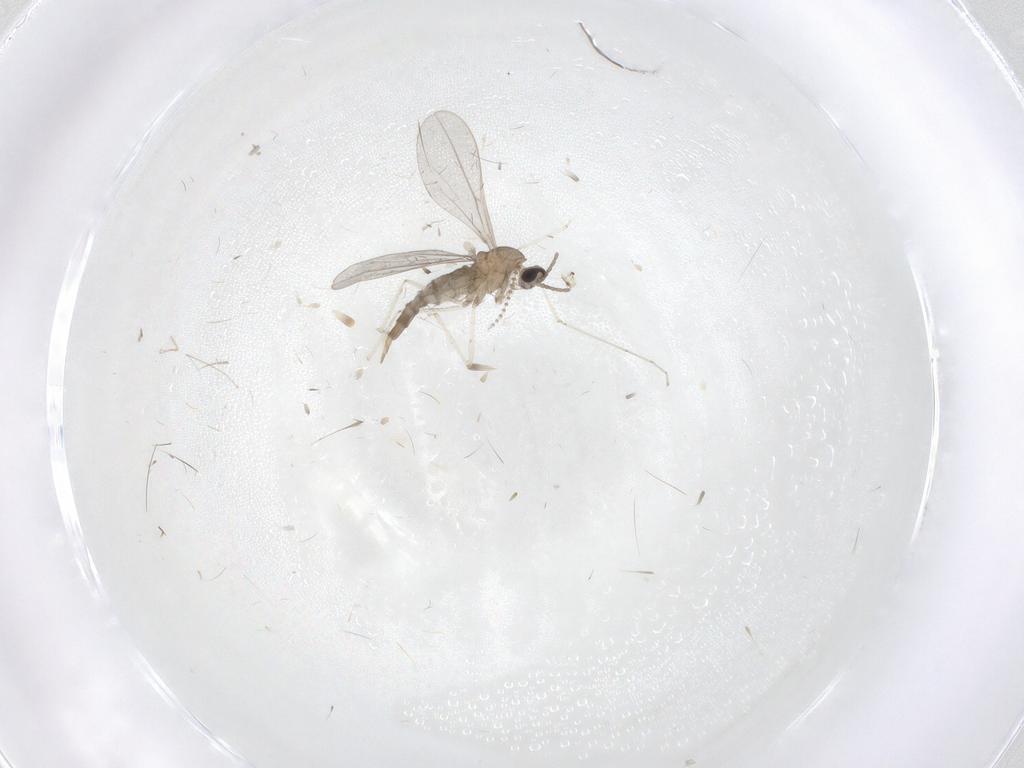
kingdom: Animalia
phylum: Arthropoda
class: Insecta
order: Diptera
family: Cecidomyiidae
